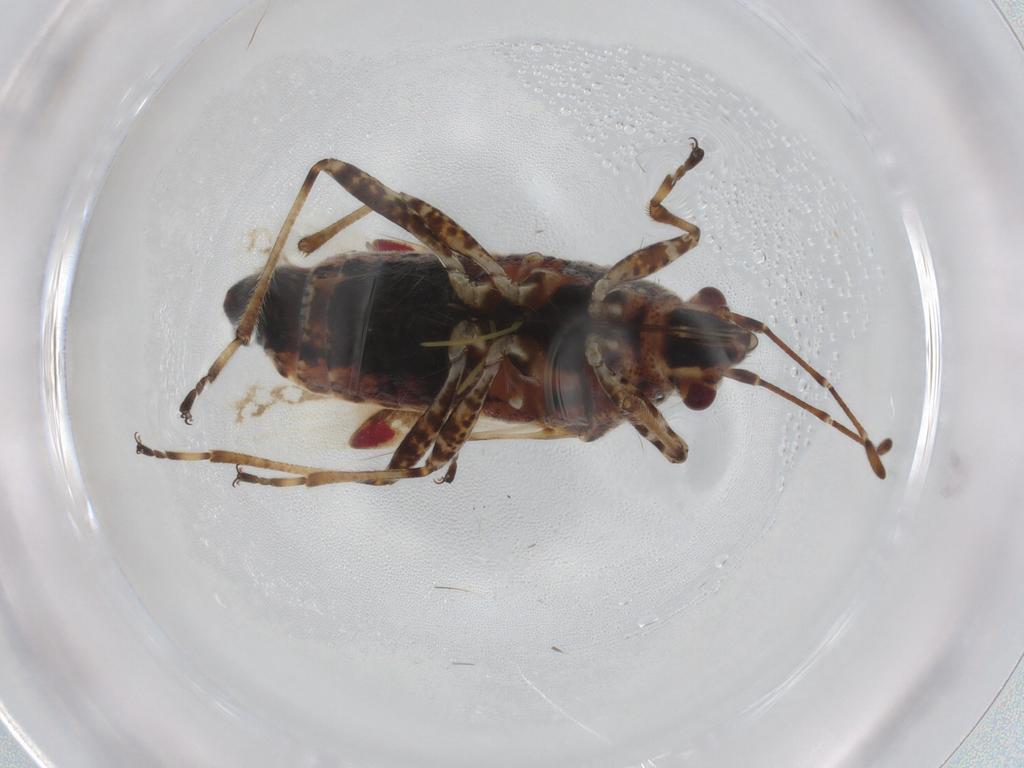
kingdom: Animalia
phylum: Arthropoda
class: Insecta
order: Hemiptera
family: Lygaeidae
